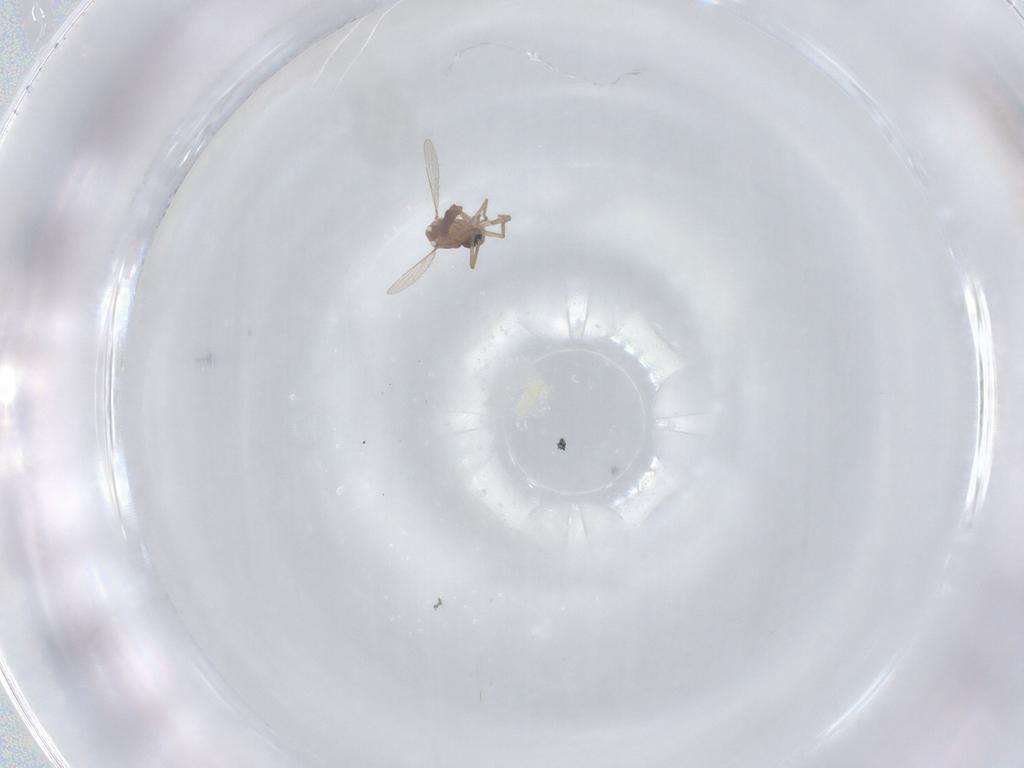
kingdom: Animalia
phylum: Arthropoda
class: Insecta
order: Diptera
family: Ceratopogonidae
